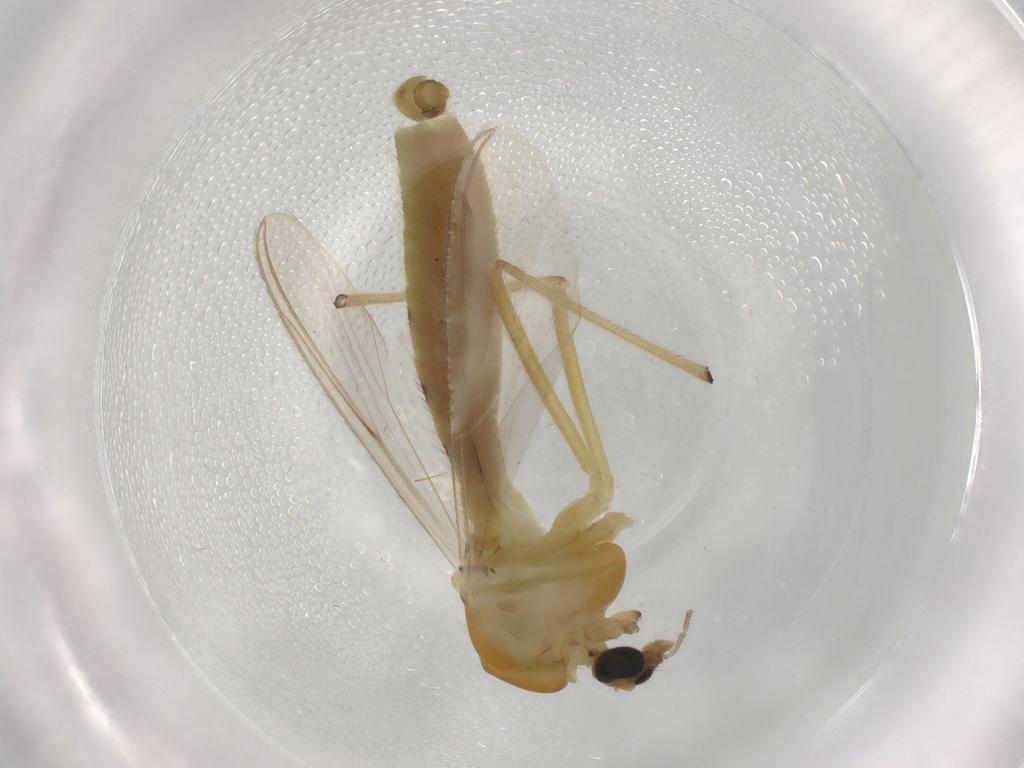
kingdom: Animalia
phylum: Arthropoda
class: Insecta
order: Diptera
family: Chironomidae
